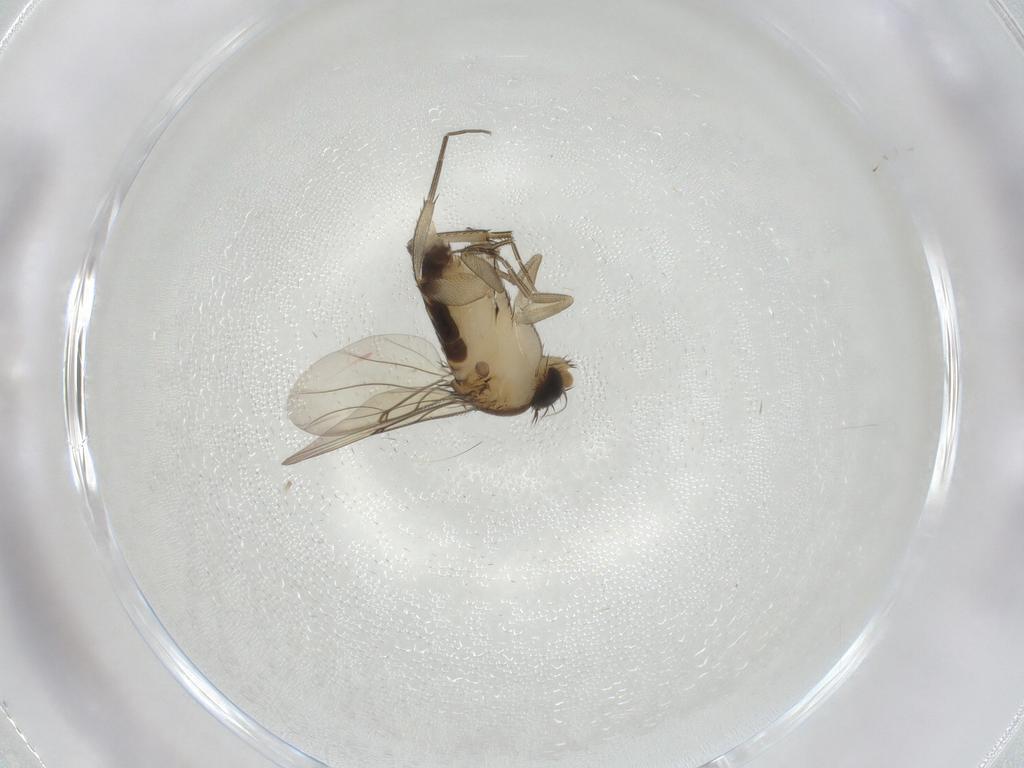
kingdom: Animalia
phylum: Arthropoda
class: Insecta
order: Diptera
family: Phoridae
